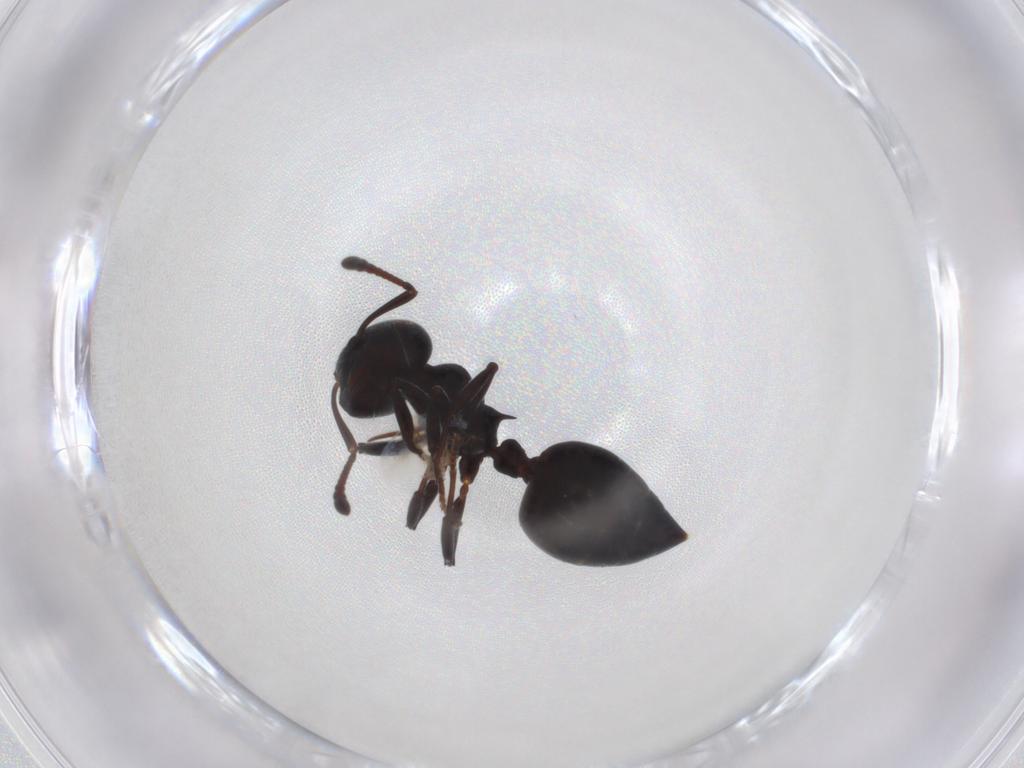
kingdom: Animalia
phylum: Arthropoda
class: Insecta
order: Hymenoptera
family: Formicidae
